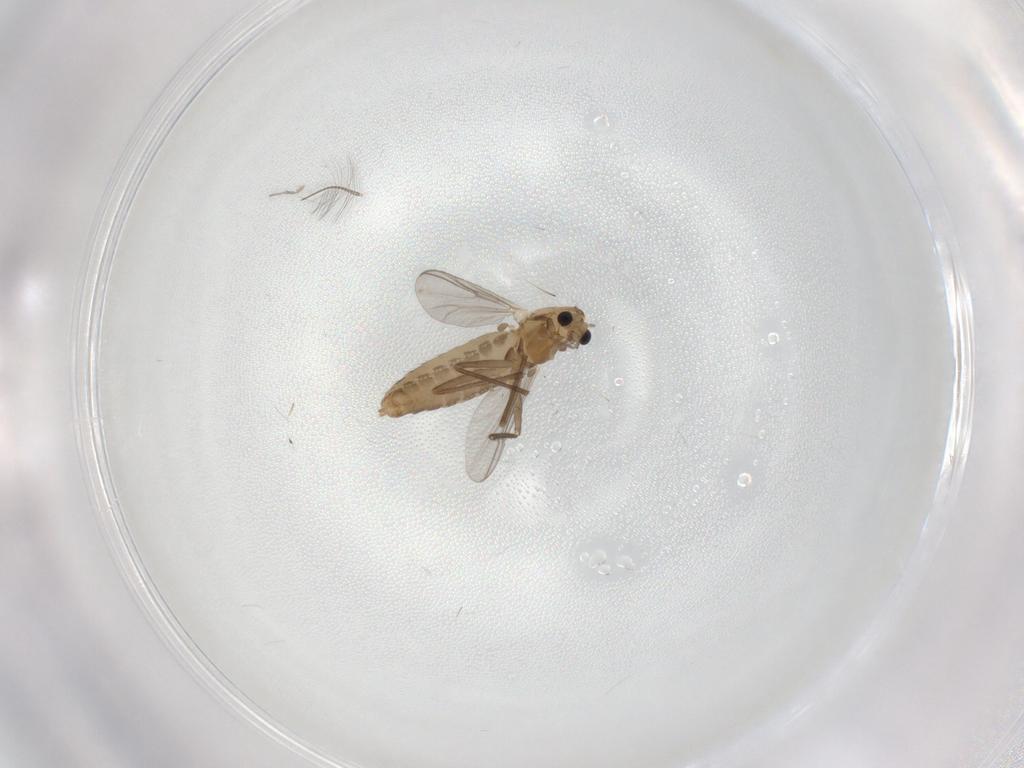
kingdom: Animalia
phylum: Arthropoda
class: Insecta
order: Diptera
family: Chironomidae
